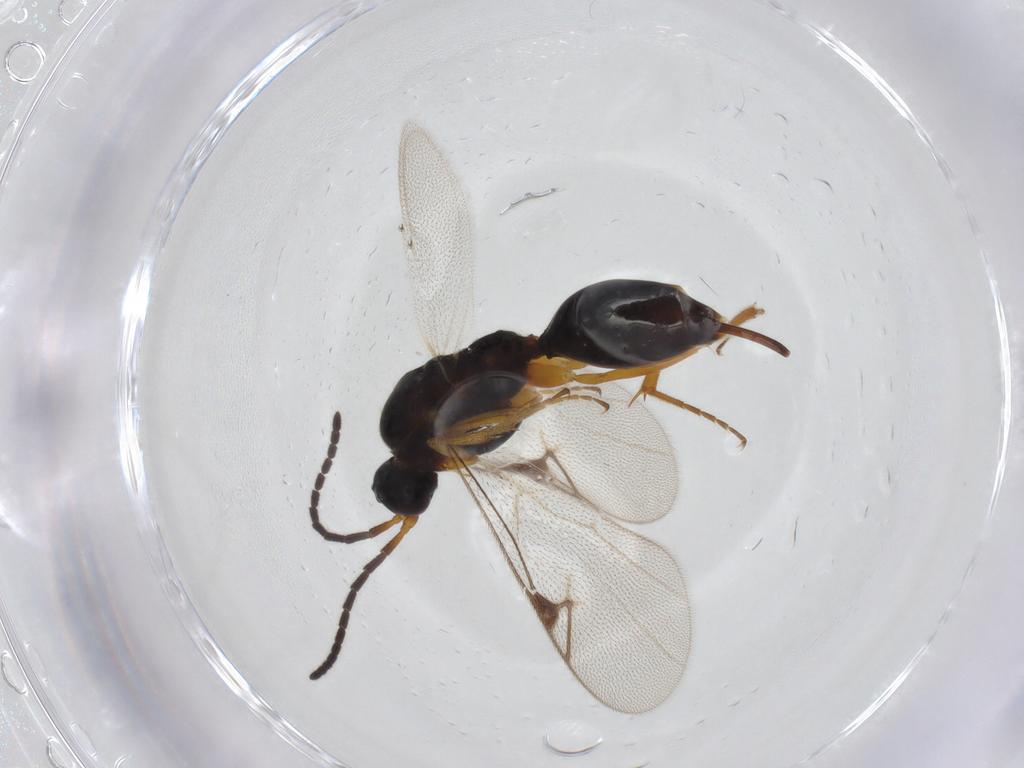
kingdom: Animalia
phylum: Arthropoda
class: Insecta
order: Hymenoptera
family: Proctotrupidae
